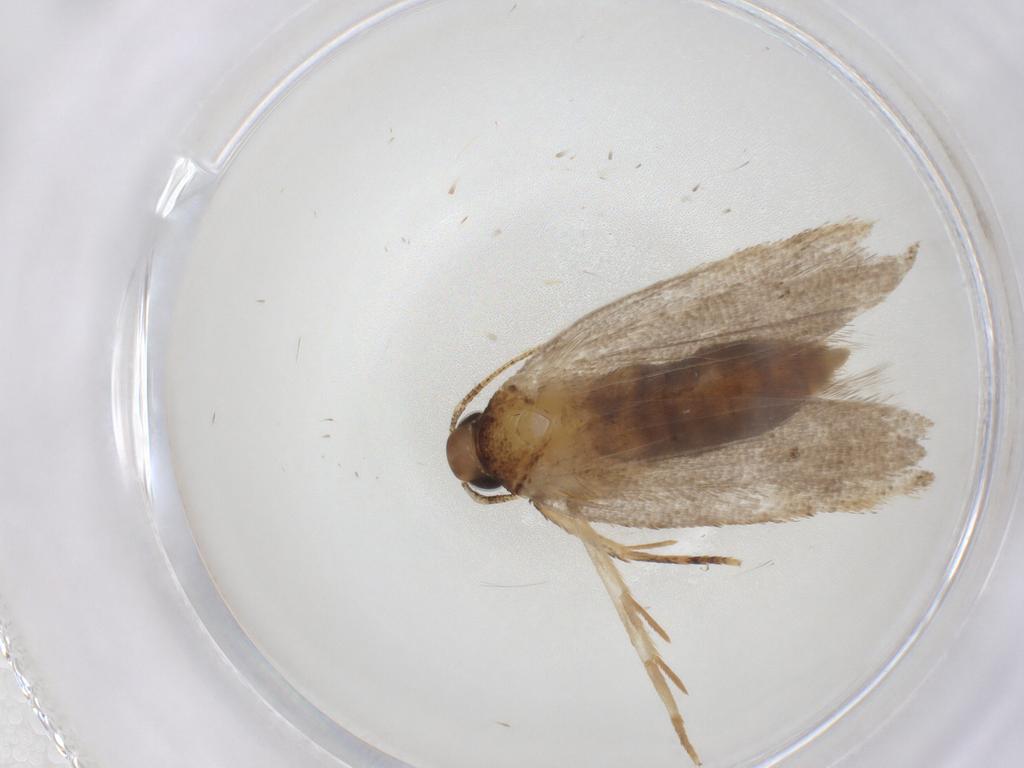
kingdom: Animalia
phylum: Arthropoda
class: Insecta
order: Lepidoptera
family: Oecophoridae
